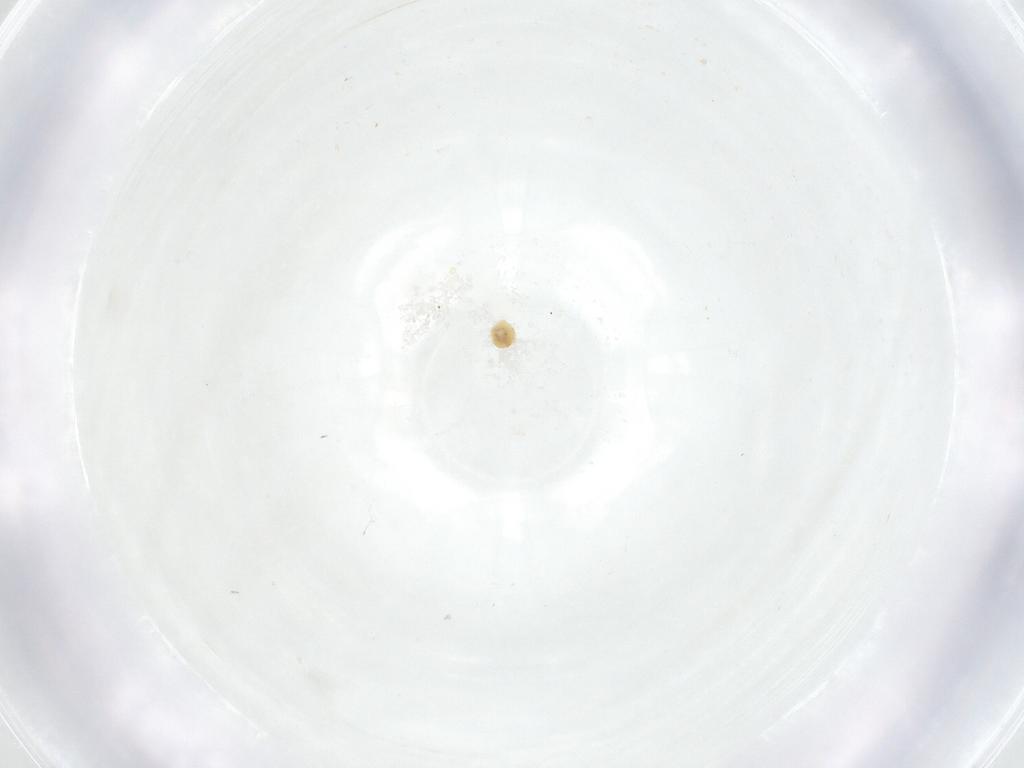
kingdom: Animalia
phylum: Arthropoda
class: Insecta
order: Diptera
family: Fergusoninidae
